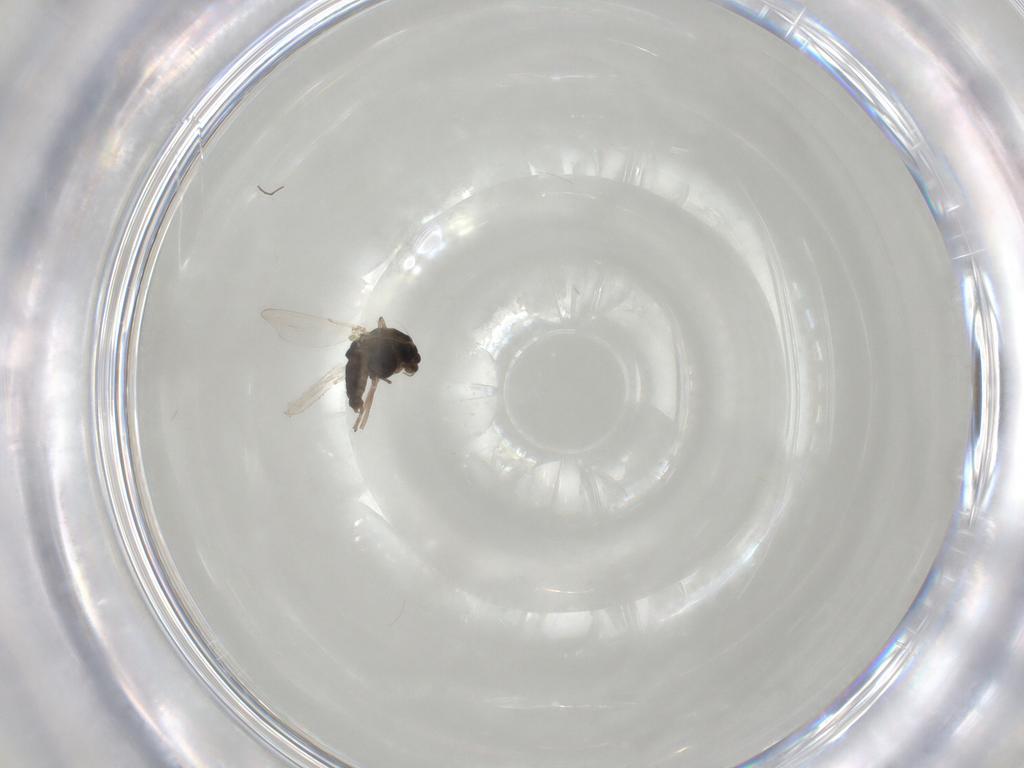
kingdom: Animalia
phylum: Arthropoda
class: Insecta
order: Diptera
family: Chironomidae
